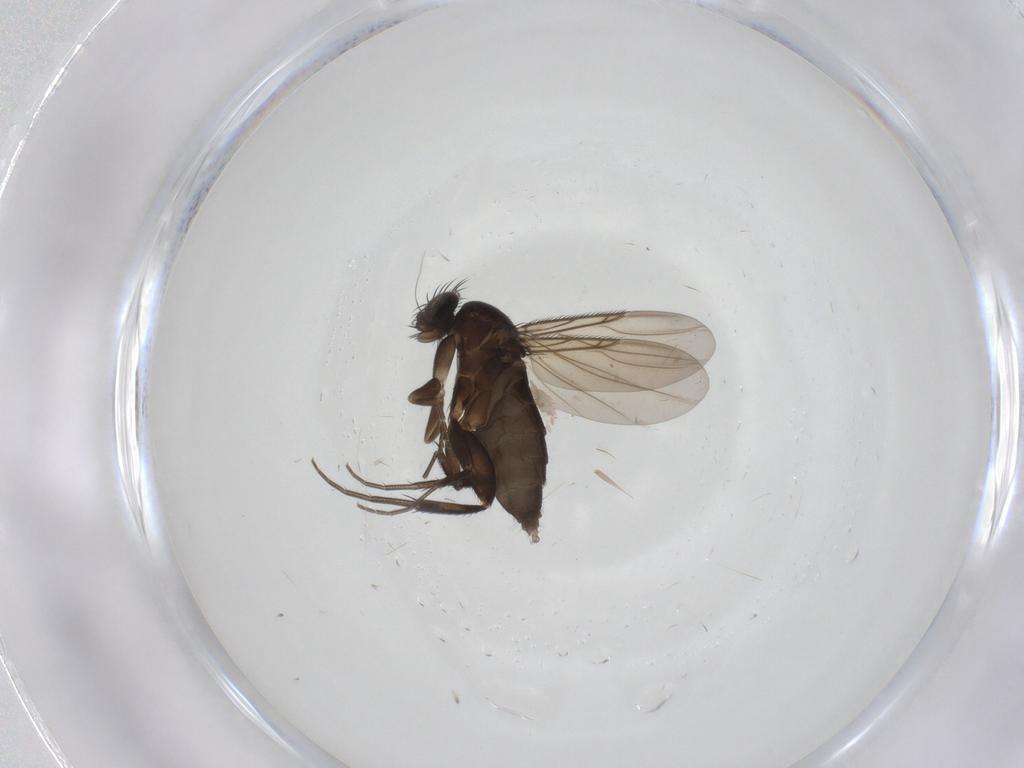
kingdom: Animalia
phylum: Arthropoda
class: Insecta
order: Diptera
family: Phoridae
